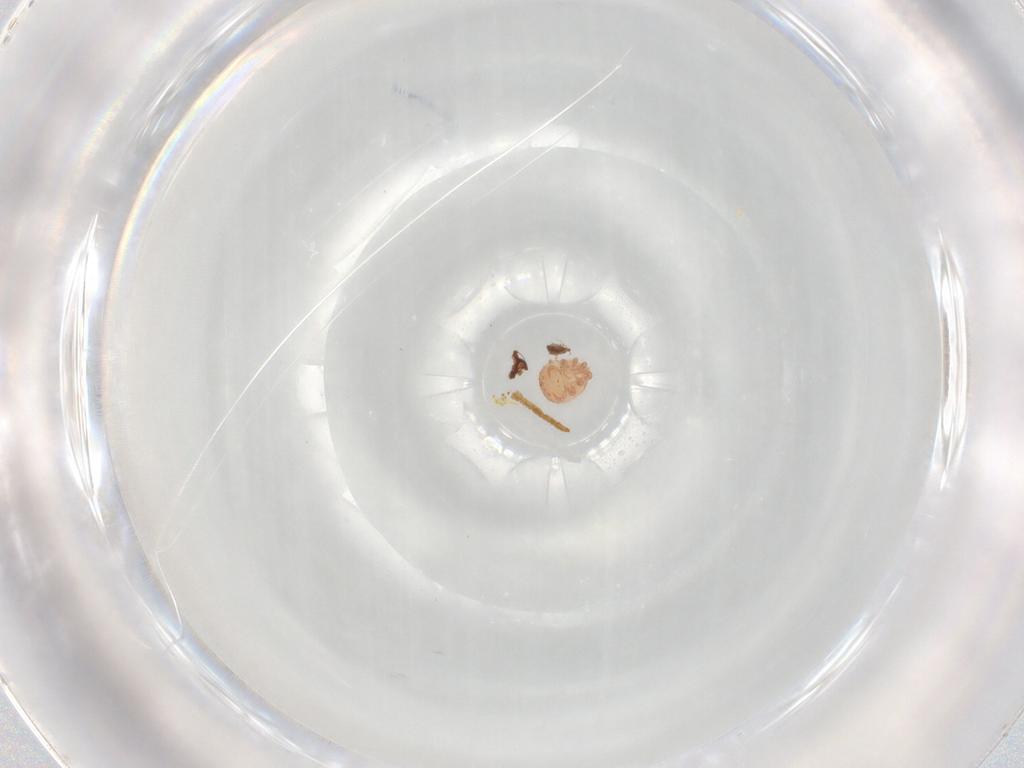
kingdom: Animalia
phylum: Arthropoda
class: Arachnida
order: Mesostigmata
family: Zerconidae
